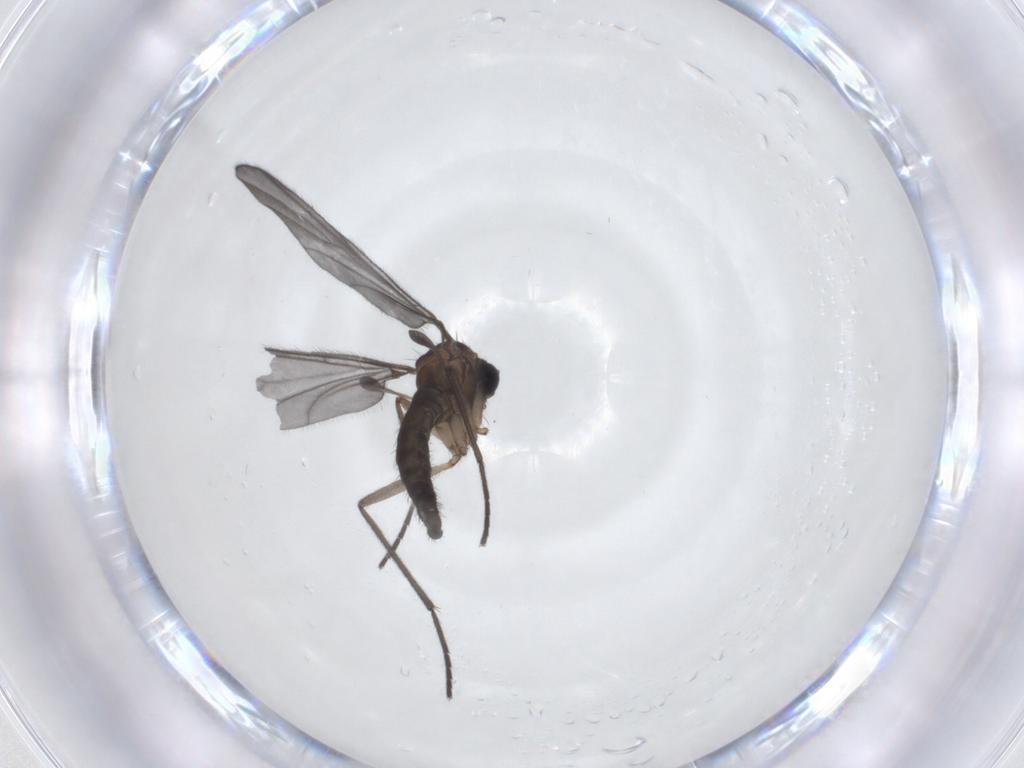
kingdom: Animalia
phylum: Arthropoda
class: Insecta
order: Diptera
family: Sciaridae
